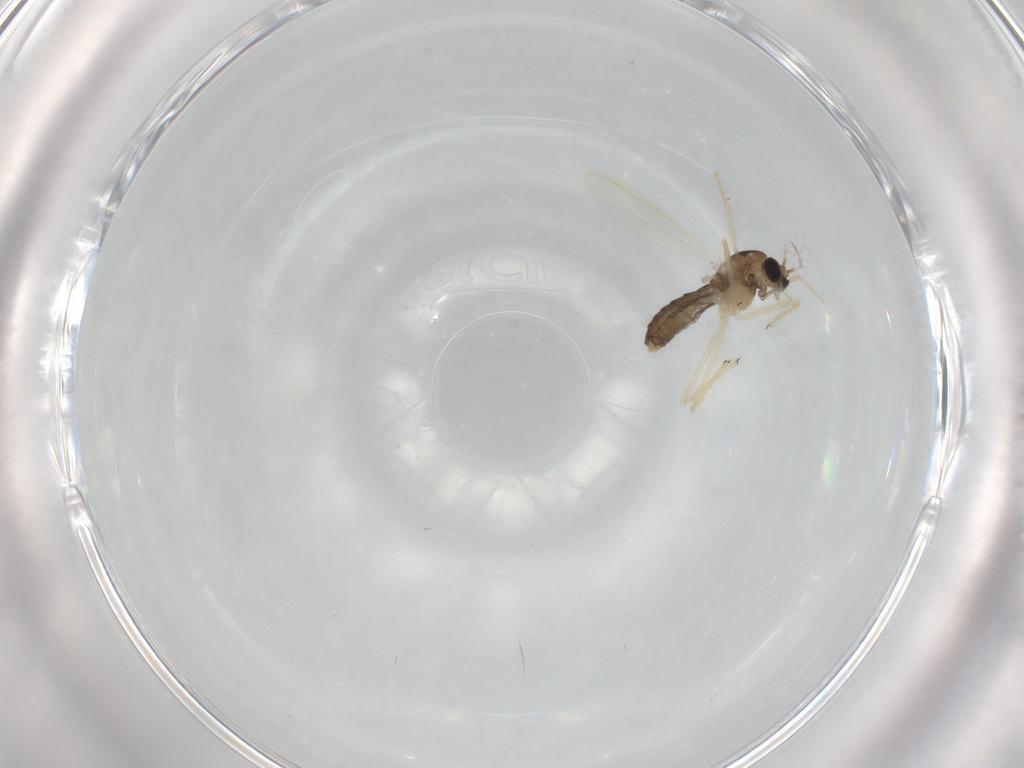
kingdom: Animalia
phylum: Arthropoda
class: Insecta
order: Diptera
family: Chironomidae
